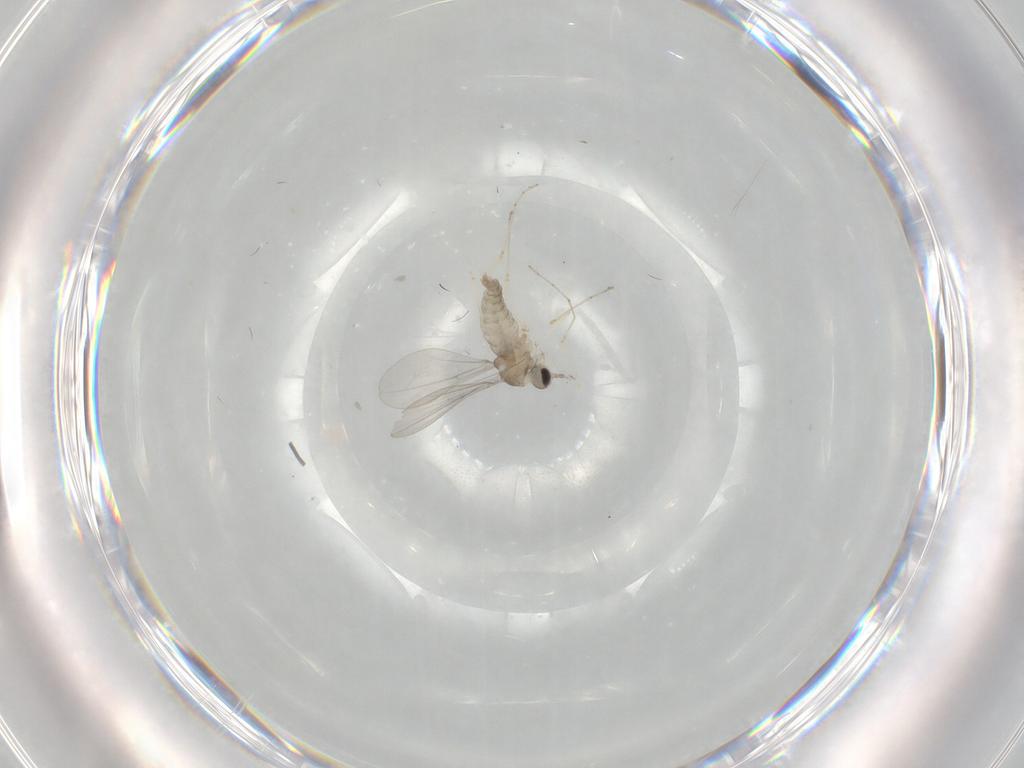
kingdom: Animalia
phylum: Arthropoda
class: Insecta
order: Diptera
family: Cecidomyiidae
